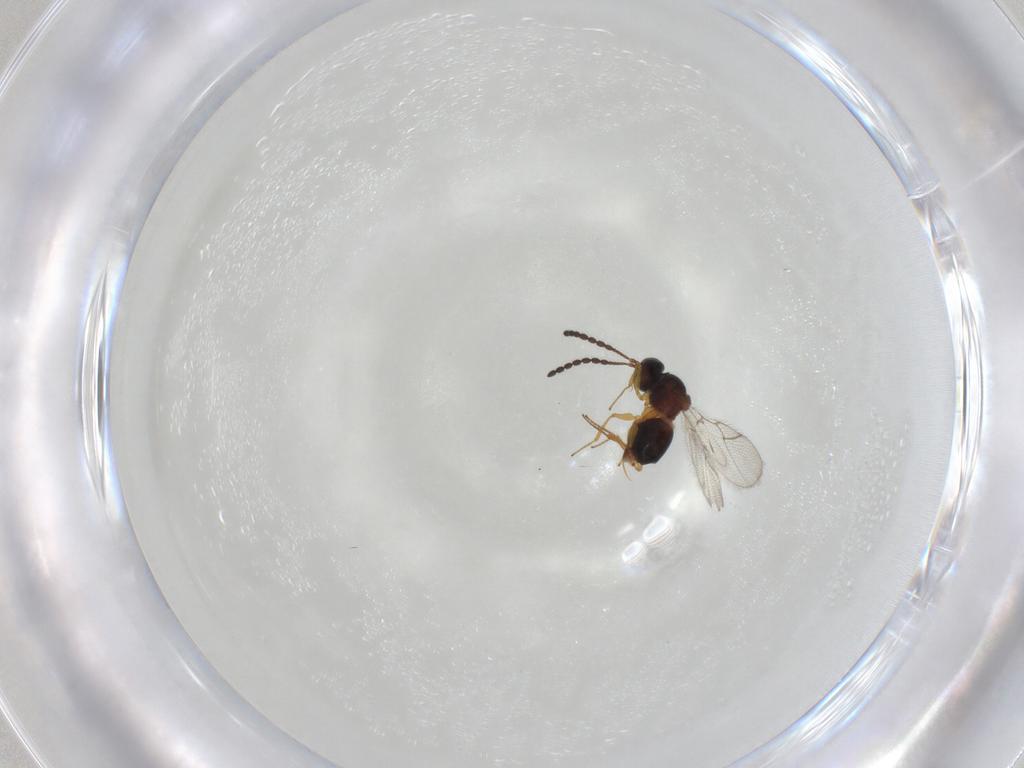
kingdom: Animalia
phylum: Arthropoda
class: Insecta
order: Hymenoptera
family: Figitidae
